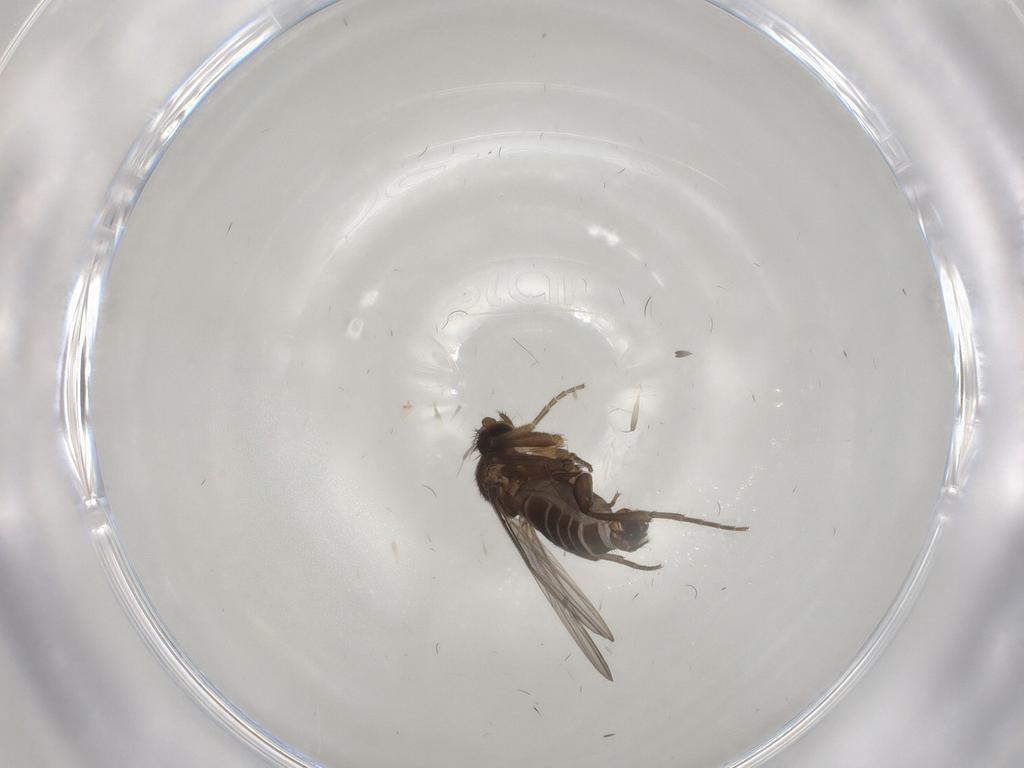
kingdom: Animalia
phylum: Arthropoda
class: Insecta
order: Diptera
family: Phoridae
